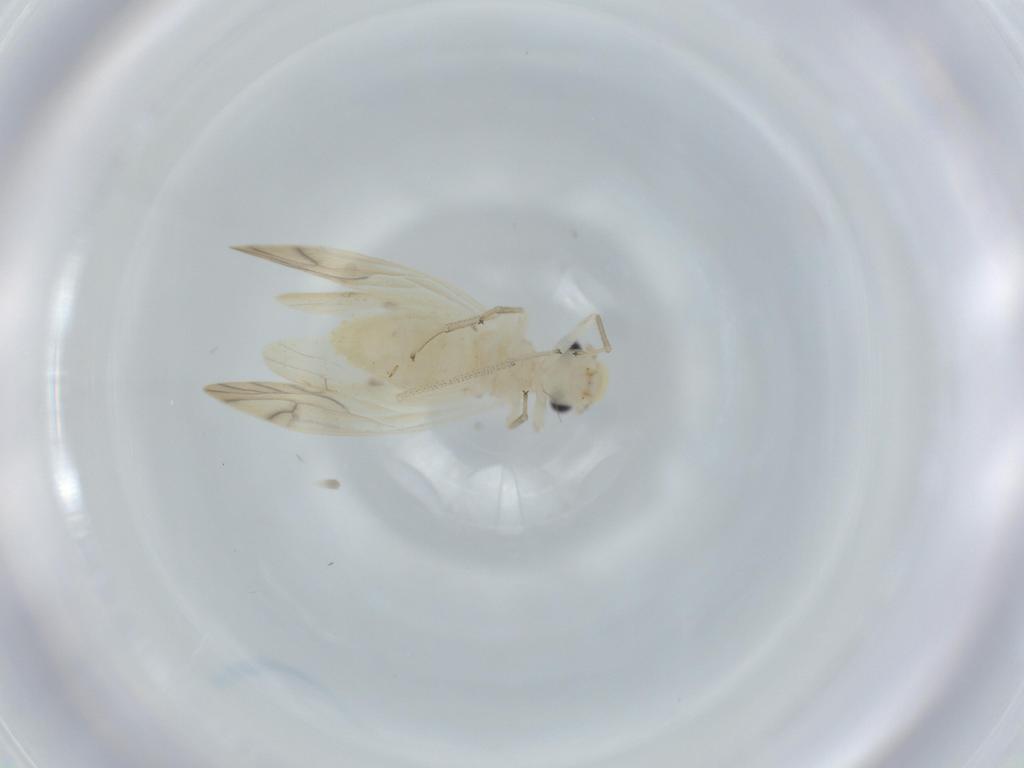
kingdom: Animalia
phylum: Arthropoda
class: Insecta
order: Psocodea
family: Caeciliusidae
